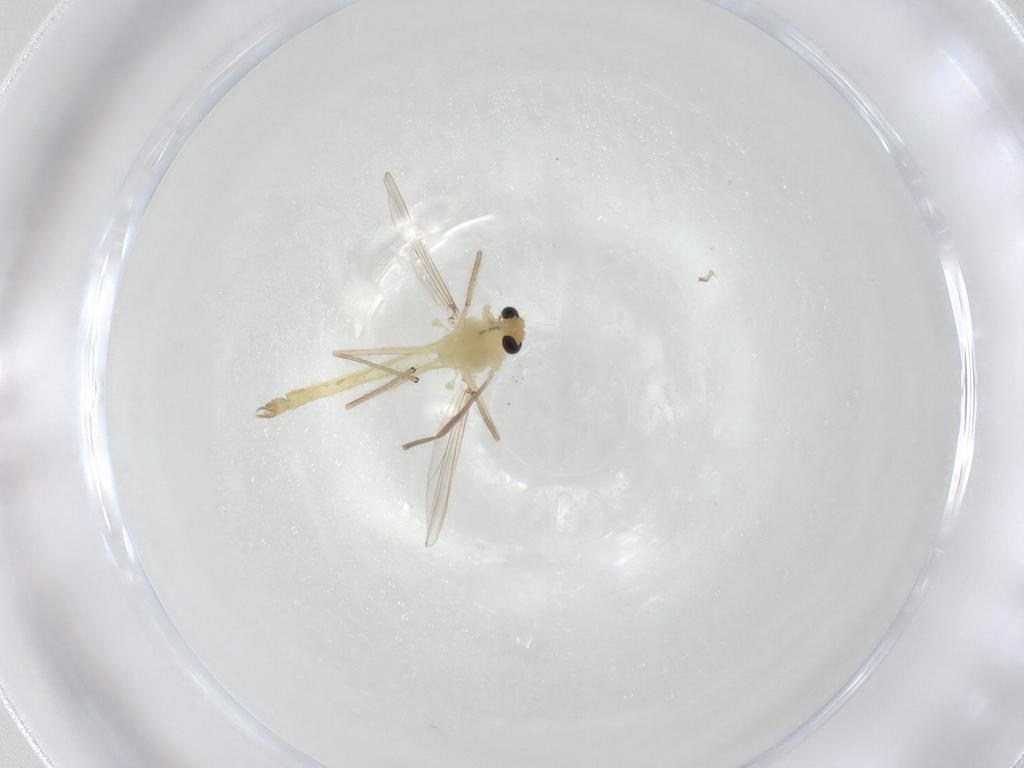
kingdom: Animalia
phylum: Arthropoda
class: Insecta
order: Diptera
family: Chironomidae
